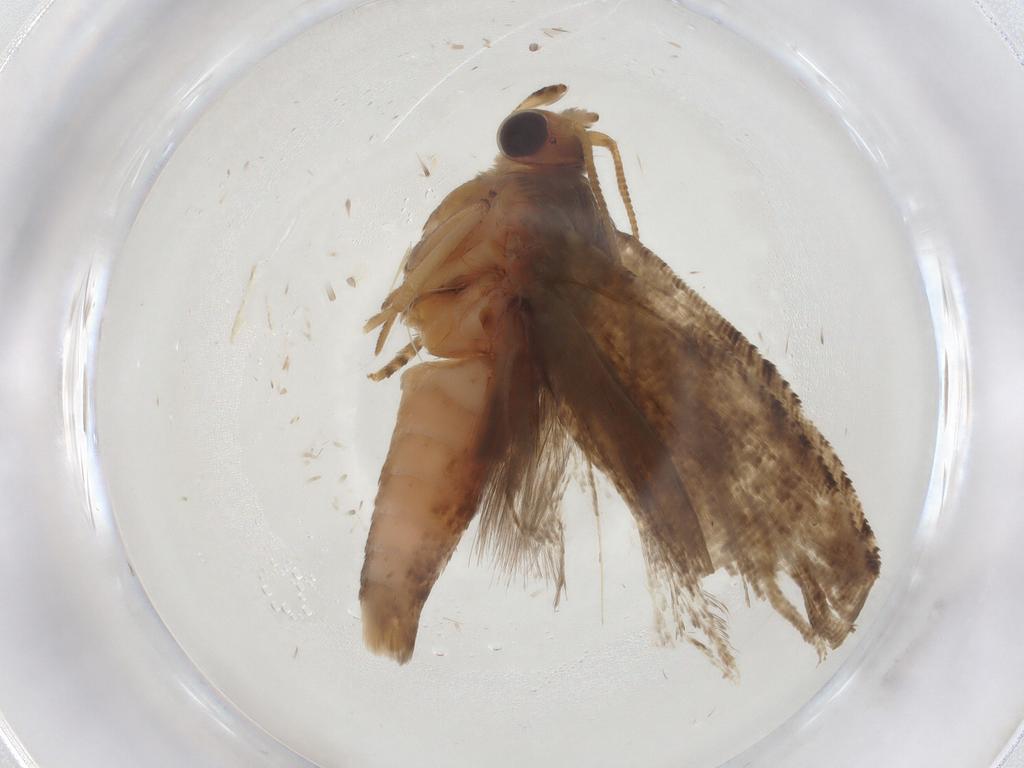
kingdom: Animalia
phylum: Arthropoda
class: Insecta
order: Lepidoptera
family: Tortricidae
